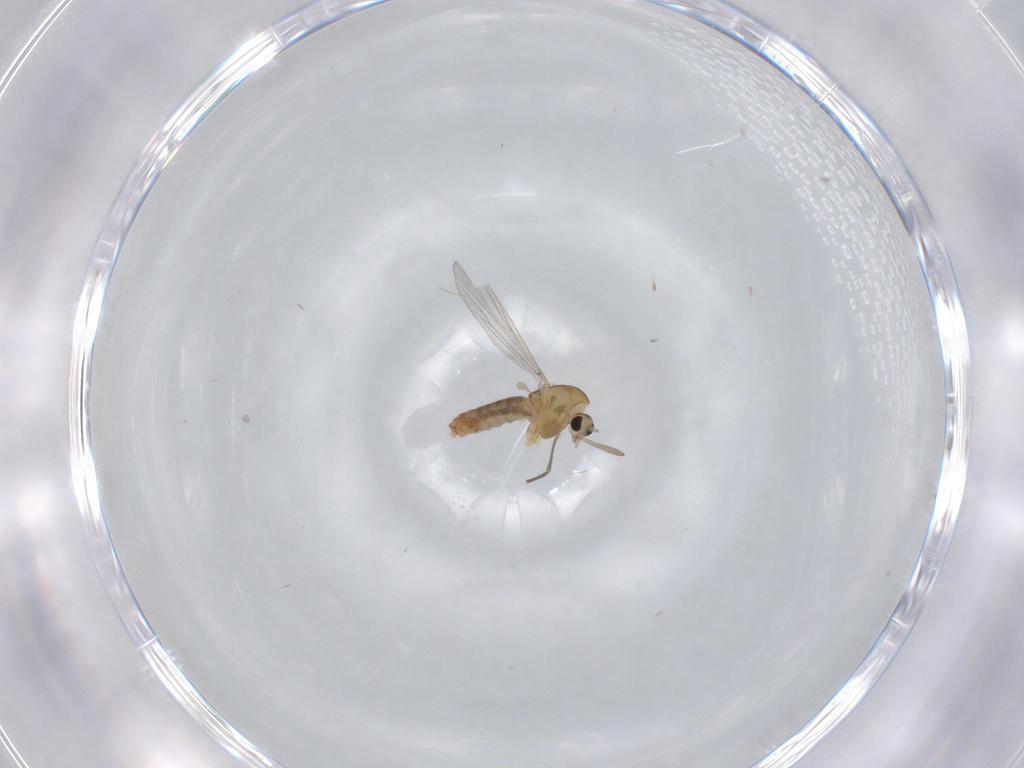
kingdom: Animalia
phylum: Arthropoda
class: Insecta
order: Diptera
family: Chironomidae
